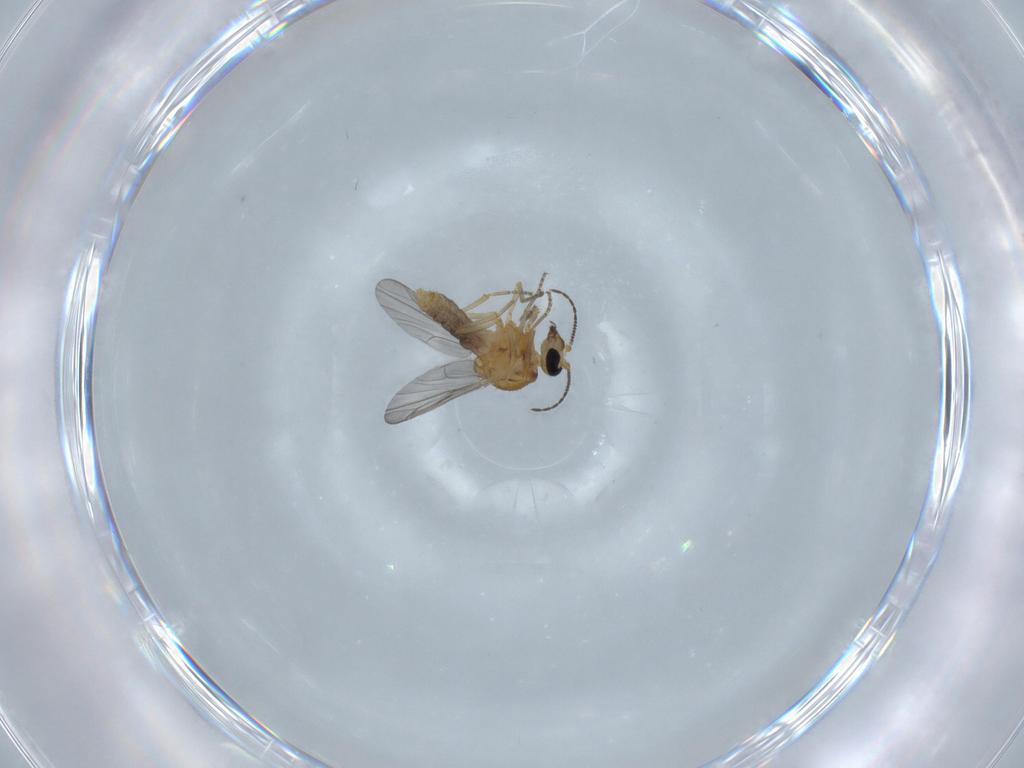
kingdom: Animalia
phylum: Arthropoda
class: Insecta
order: Diptera
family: Ceratopogonidae
